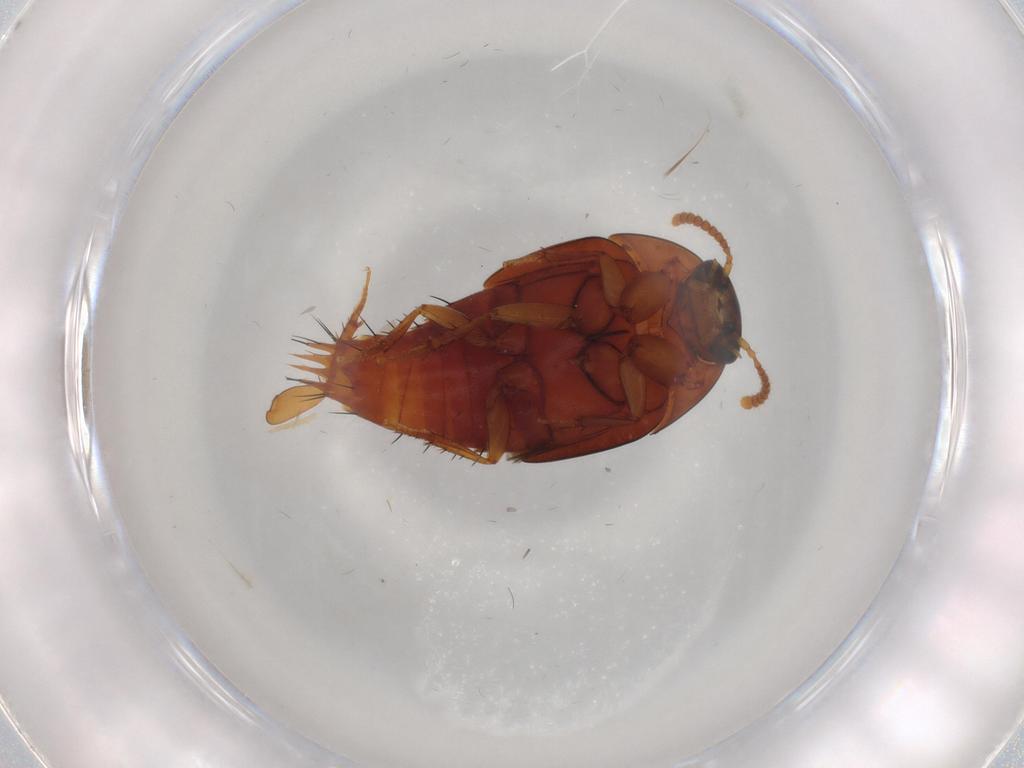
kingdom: Animalia
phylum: Arthropoda
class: Insecta
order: Coleoptera
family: Staphylinidae
